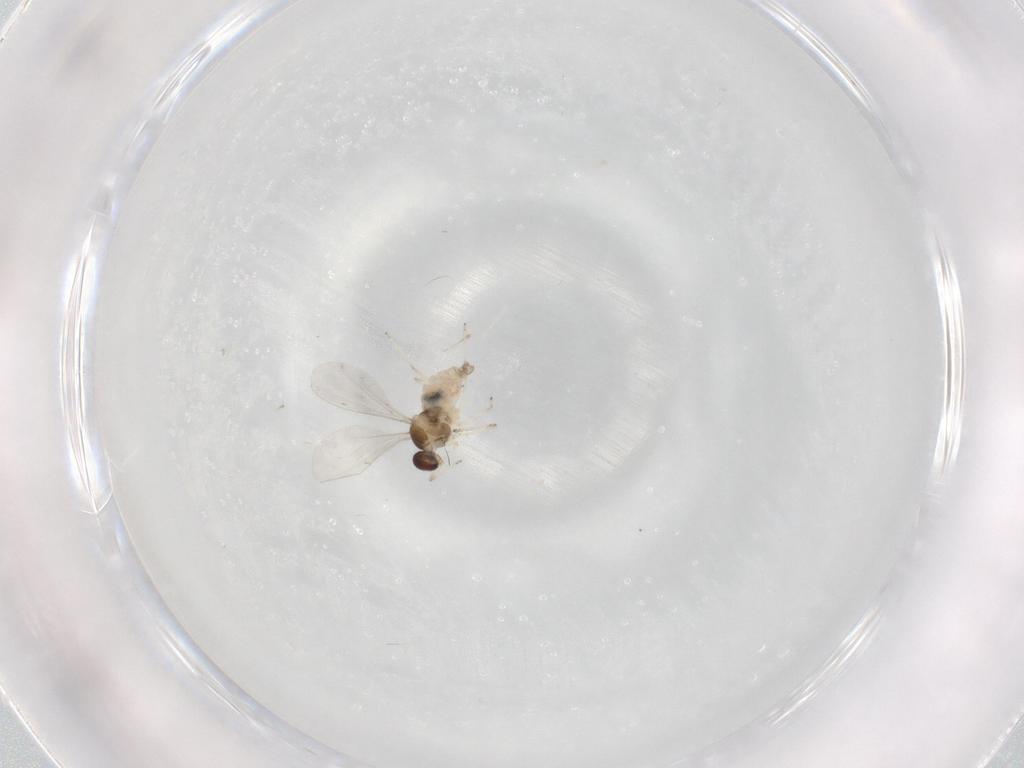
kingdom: Animalia
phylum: Arthropoda
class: Insecta
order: Diptera
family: Cecidomyiidae
